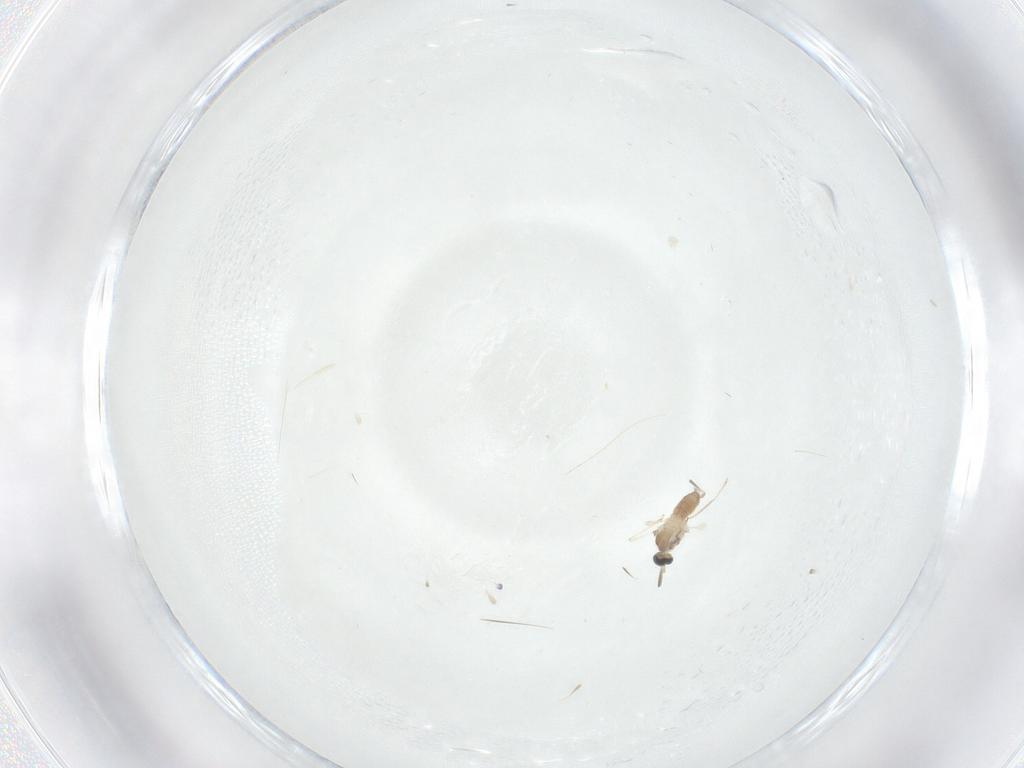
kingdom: Animalia
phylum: Arthropoda
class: Insecta
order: Diptera
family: Cecidomyiidae
